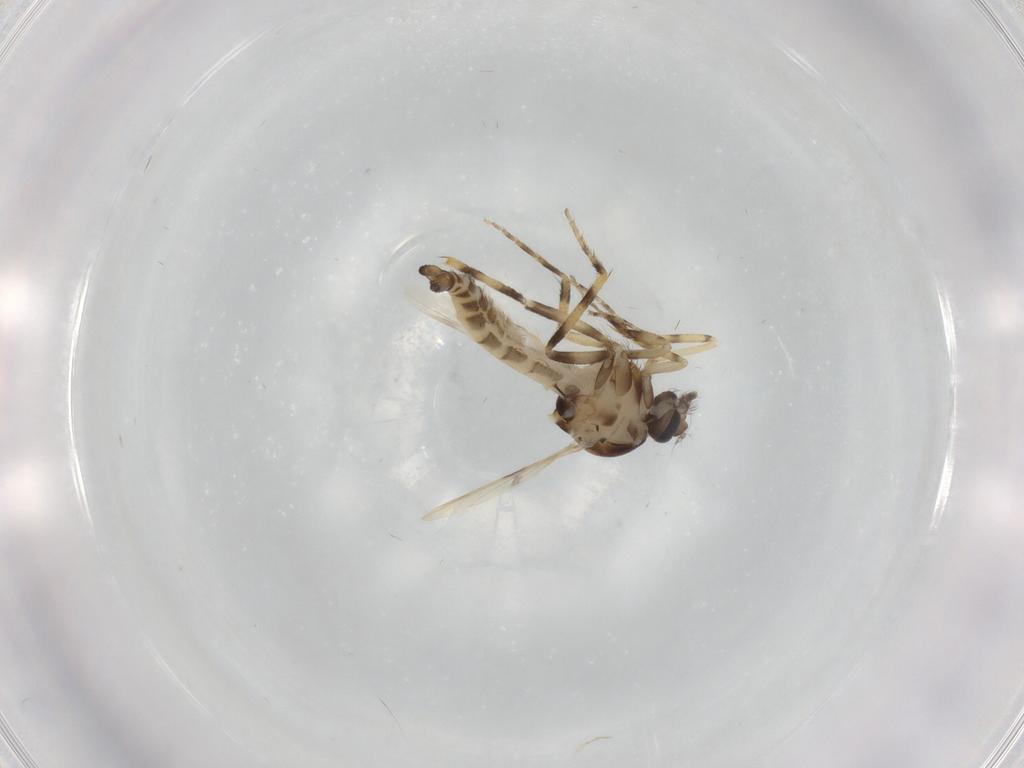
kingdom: Animalia
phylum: Arthropoda
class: Insecta
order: Diptera
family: Ceratopogonidae
